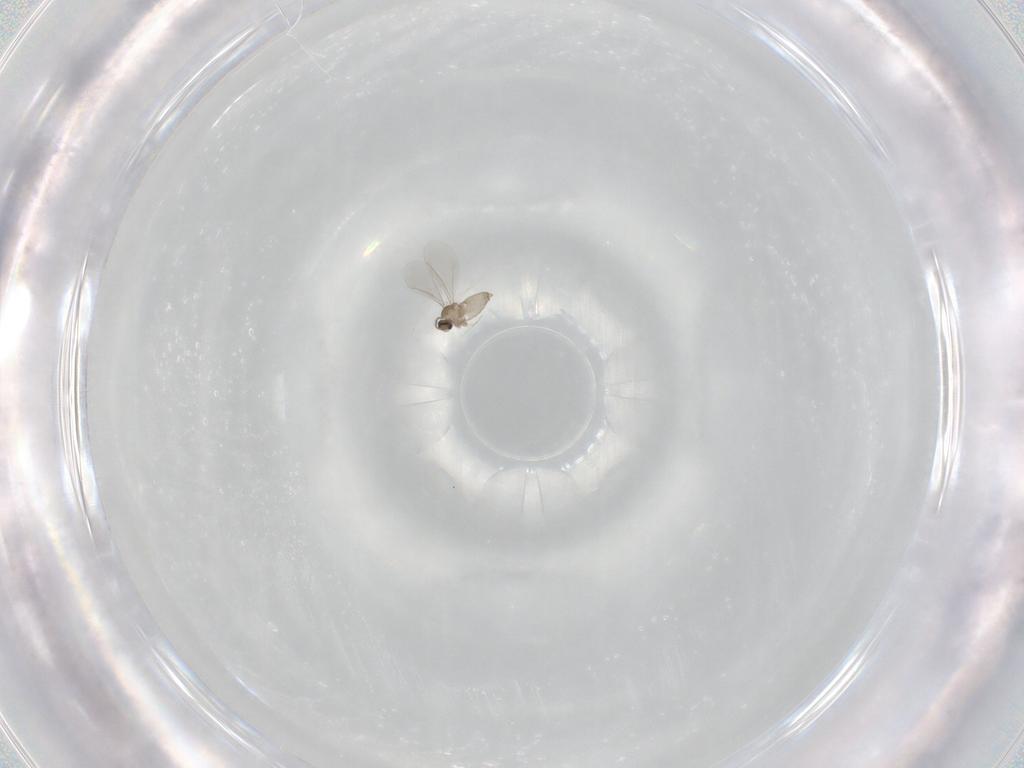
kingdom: Animalia
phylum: Arthropoda
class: Insecta
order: Diptera
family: Cecidomyiidae
